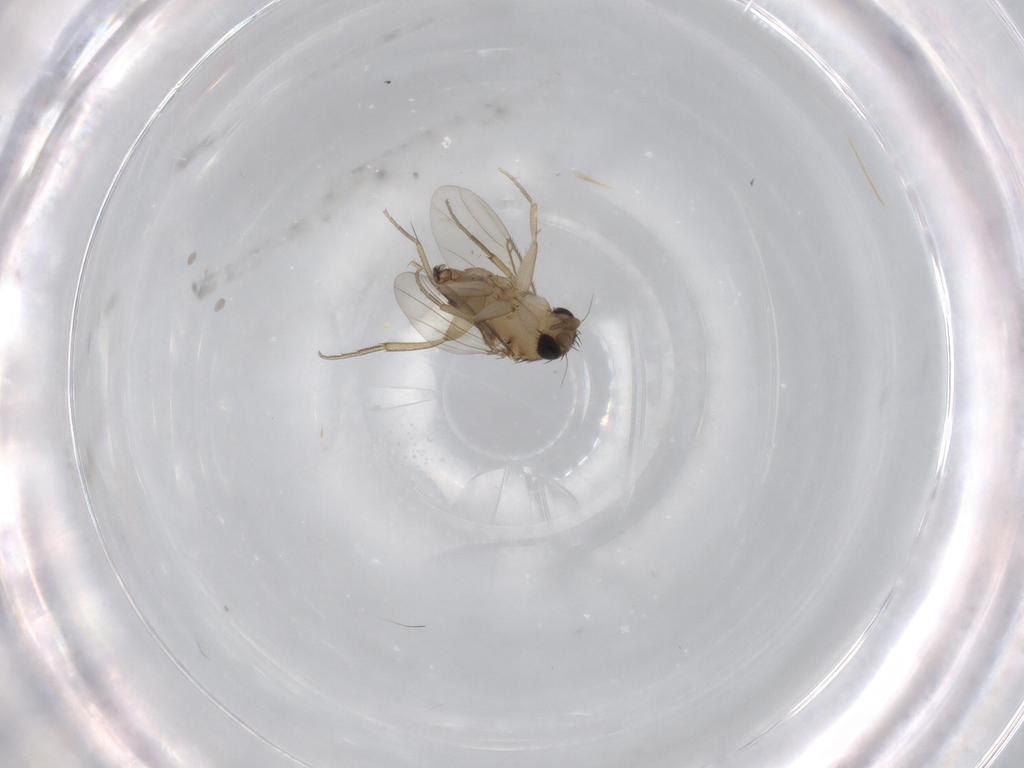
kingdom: Animalia
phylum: Arthropoda
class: Insecta
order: Diptera
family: Phoridae
